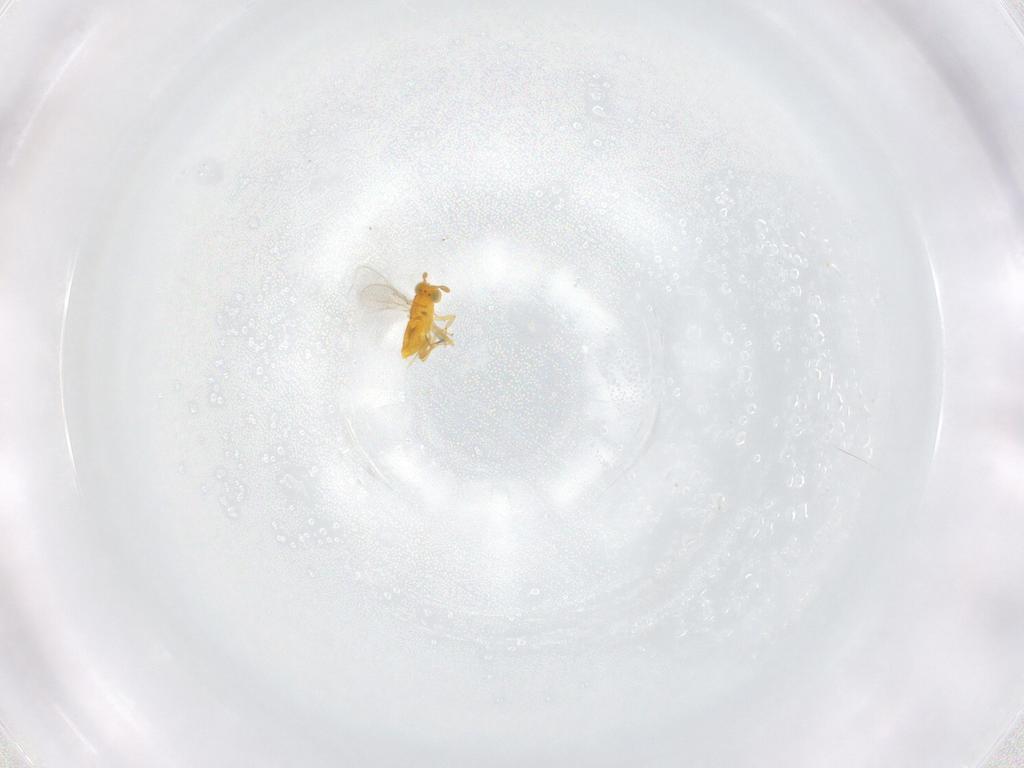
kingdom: Animalia
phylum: Arthropoda
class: Insecta
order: Hymenoptera
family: Aphelinidae
